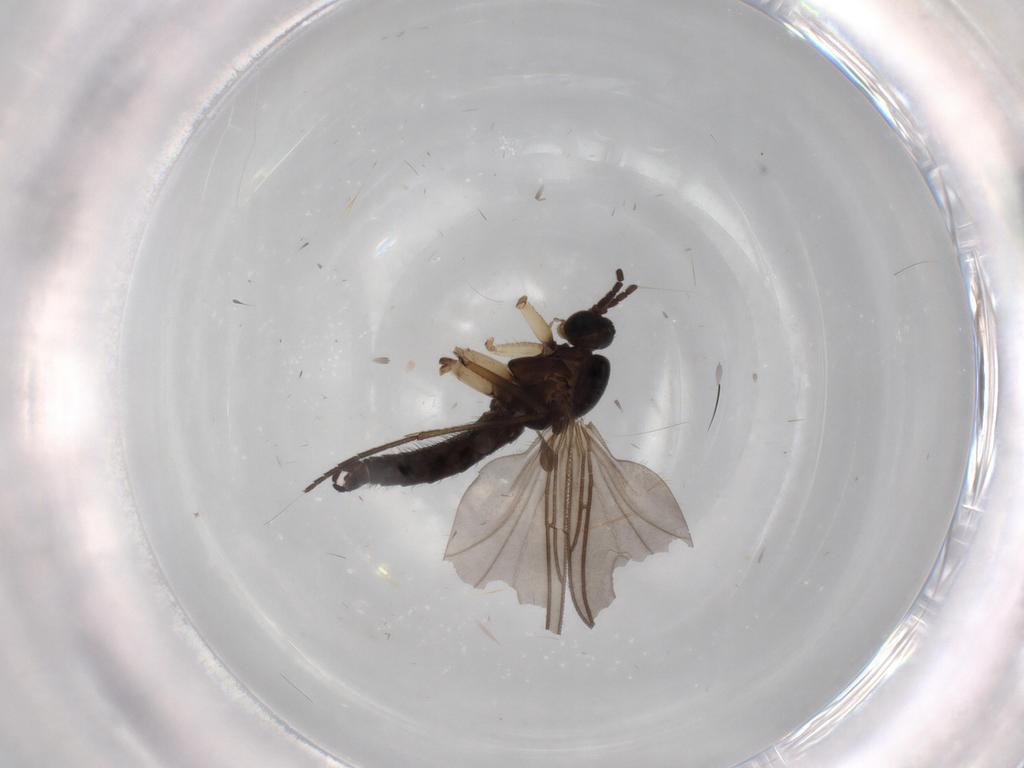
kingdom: Animalia
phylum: Arthropoda
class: Insecta
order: Diptera
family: Sciaridae
